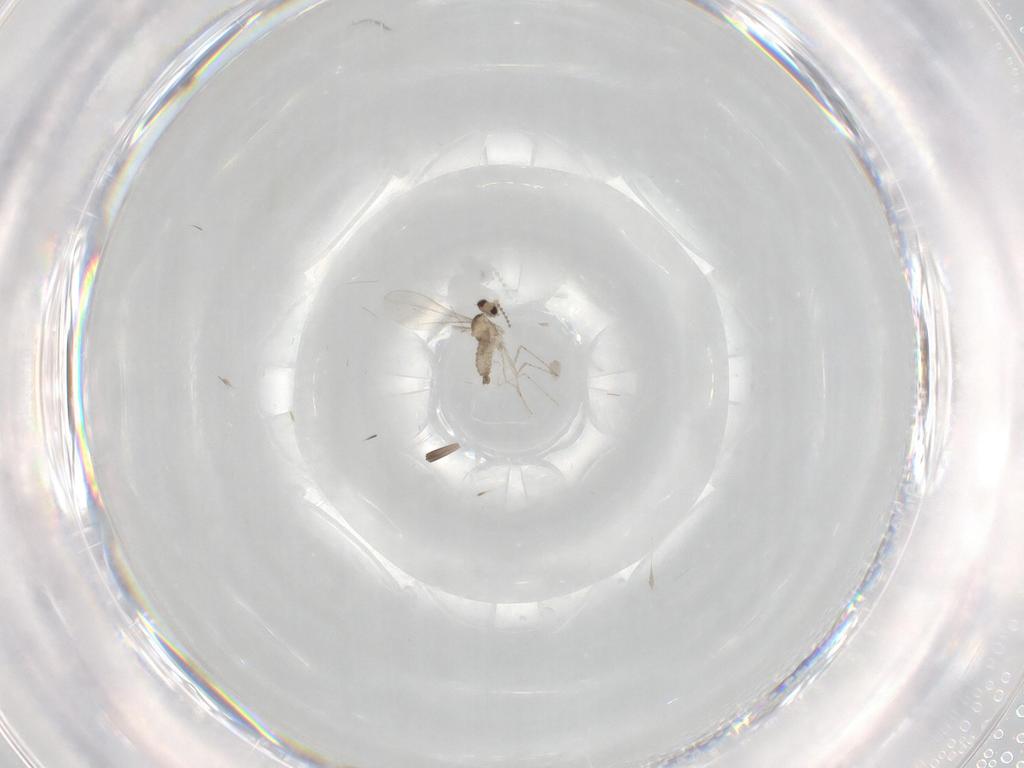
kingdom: Animalia
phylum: Arthropoda
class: Insecta
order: Diptera
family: Cecidomyiidae
